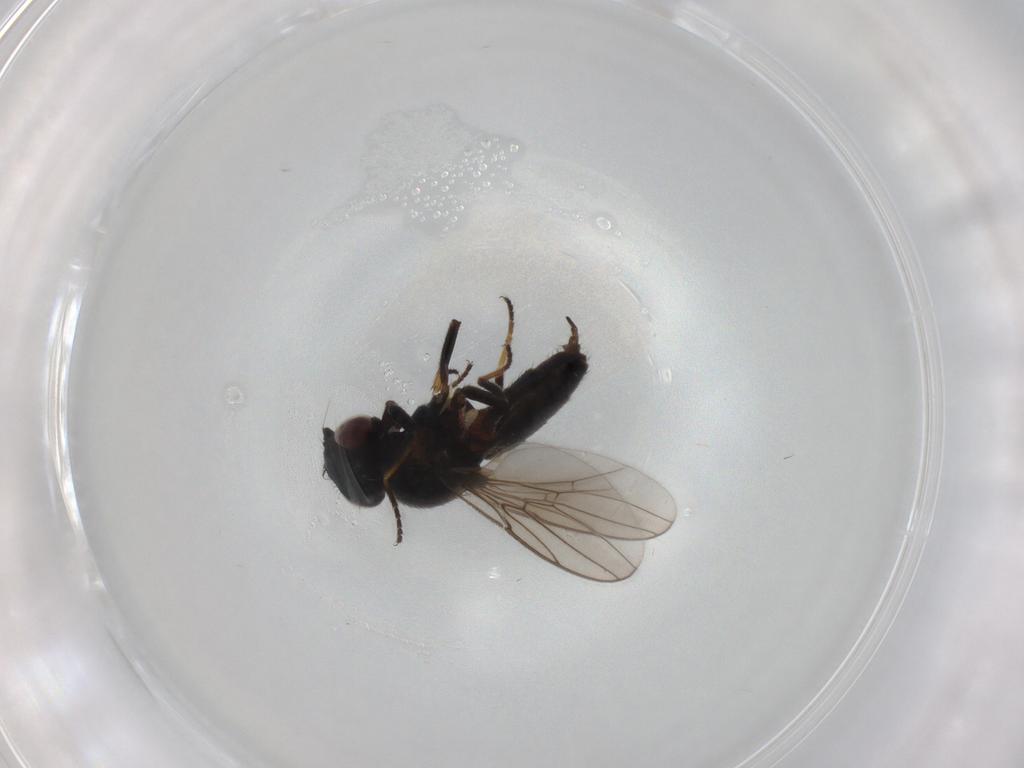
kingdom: Animalia
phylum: Arthropoda
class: Insecta
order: Diptera
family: Chloropidae
